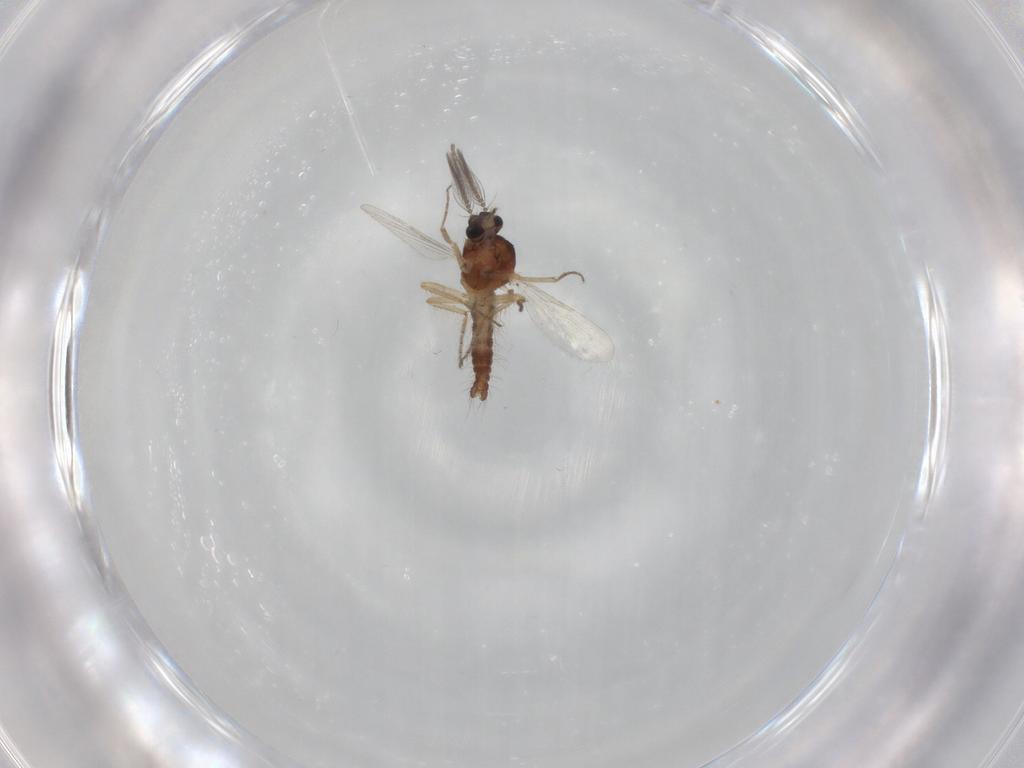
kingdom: Animalia
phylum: Arthropoda
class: Insecta
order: Diptera
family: Ceratopogonidae
